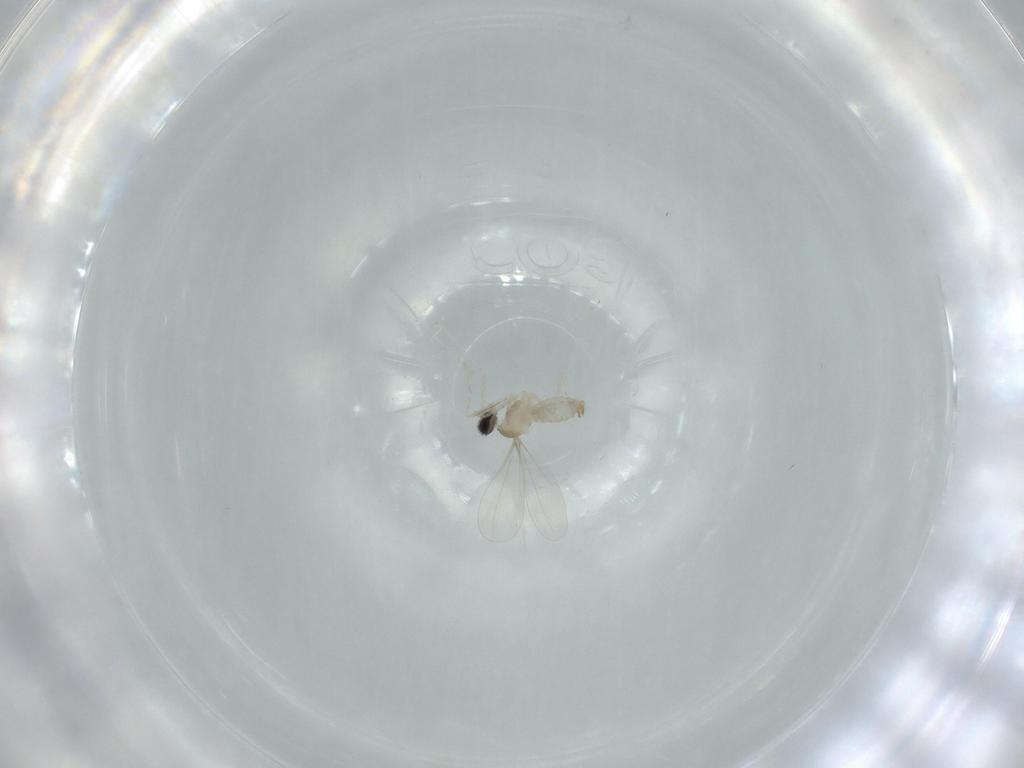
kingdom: Animalia
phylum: Arthropoda
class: Insecta
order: Diptera
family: Cecidomyiidae
